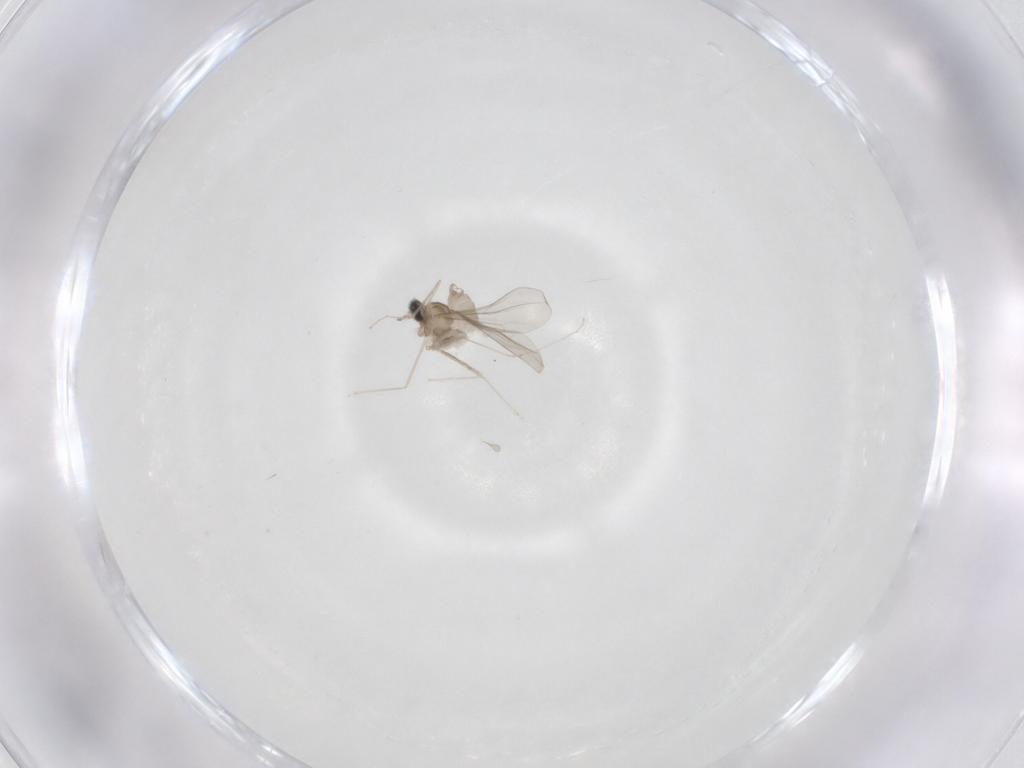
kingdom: Animalia
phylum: Arthropoda
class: Insecta
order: Diptera
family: Cecidomyiidae
